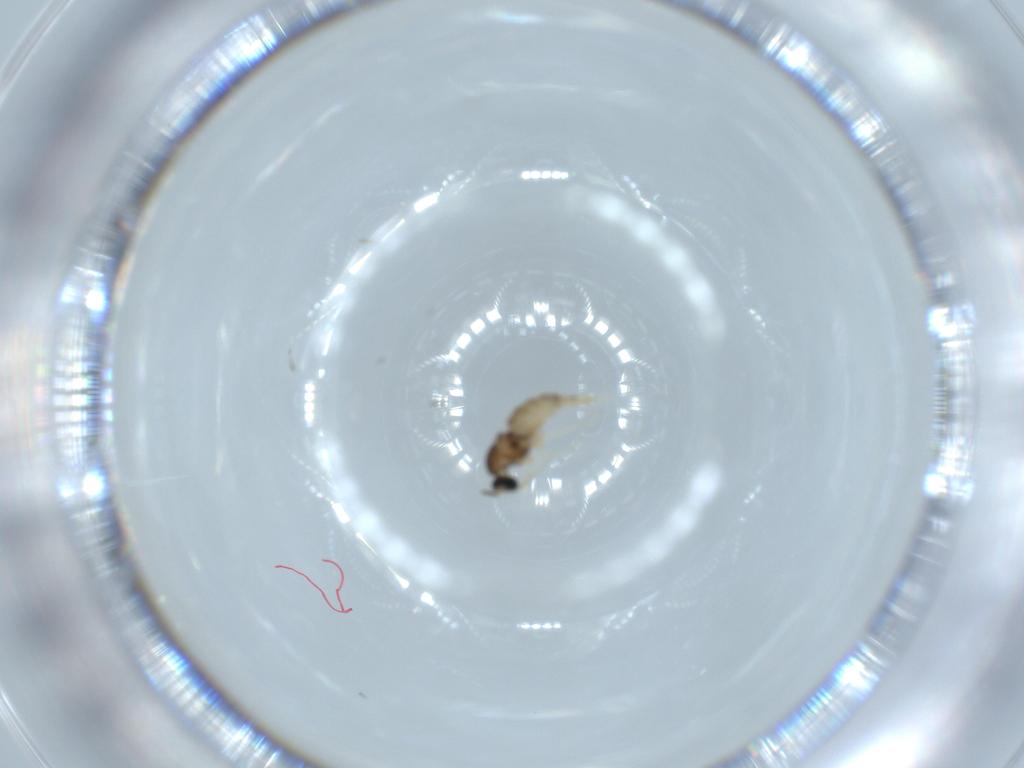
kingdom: Animalia
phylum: Arthropoda
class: Insecta
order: Diptera
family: Cecidomyiidae
